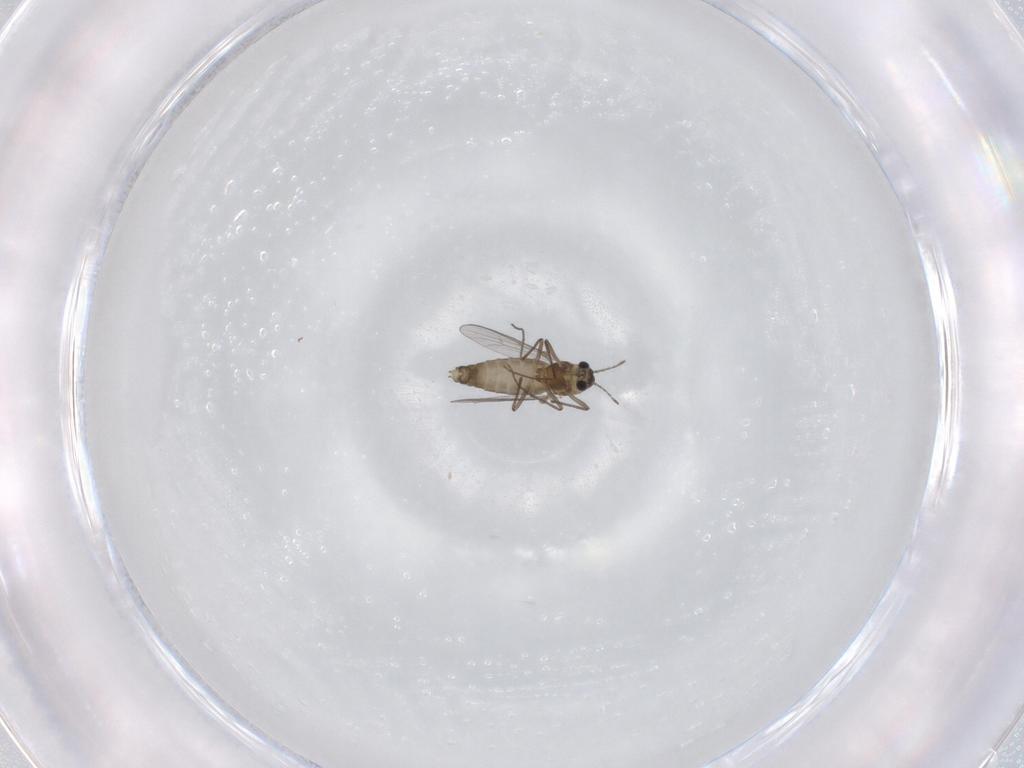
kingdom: Animalia
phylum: Arthropoda
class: Insecta
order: Diptera
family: Chironomidae
